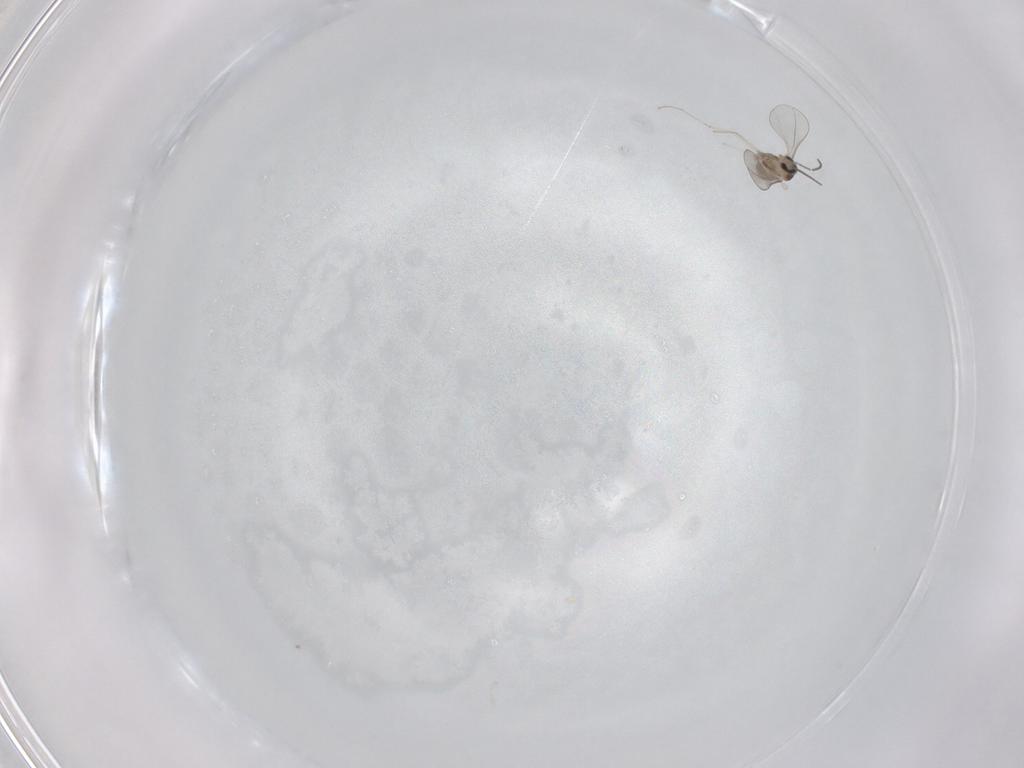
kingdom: Animalia
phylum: Arthropoda
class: Insecta
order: Diptera
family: Cecidomyiidae
